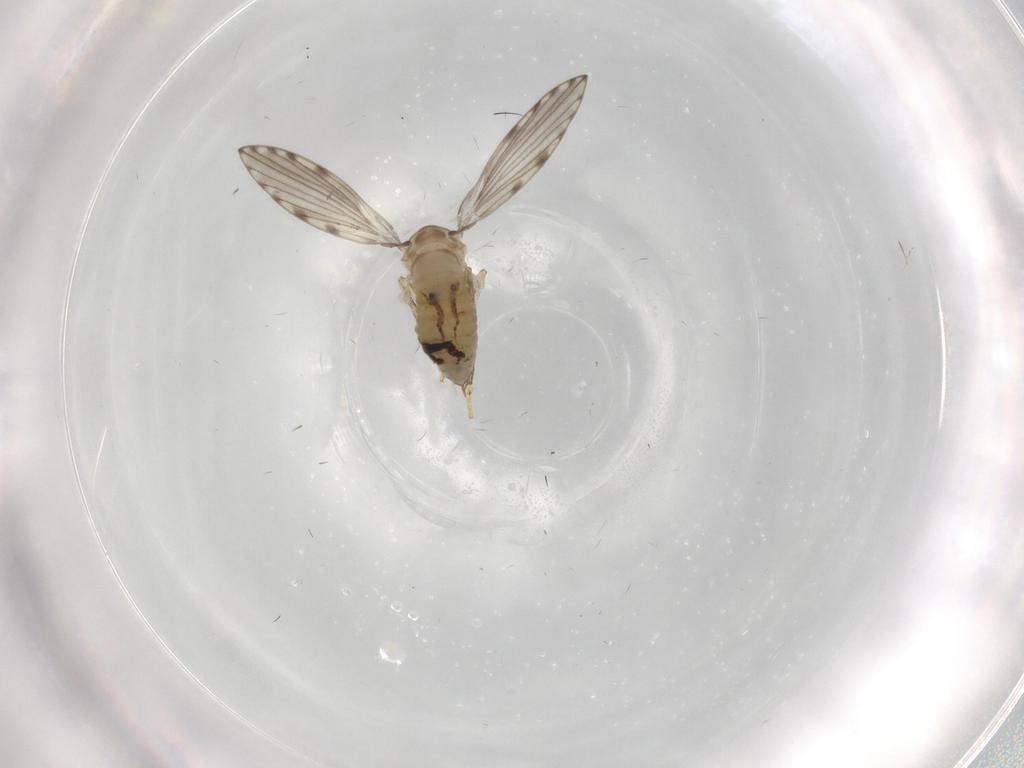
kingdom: Animalia
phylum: Arthropoda
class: Insecta
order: Diptera
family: Psychodidae
